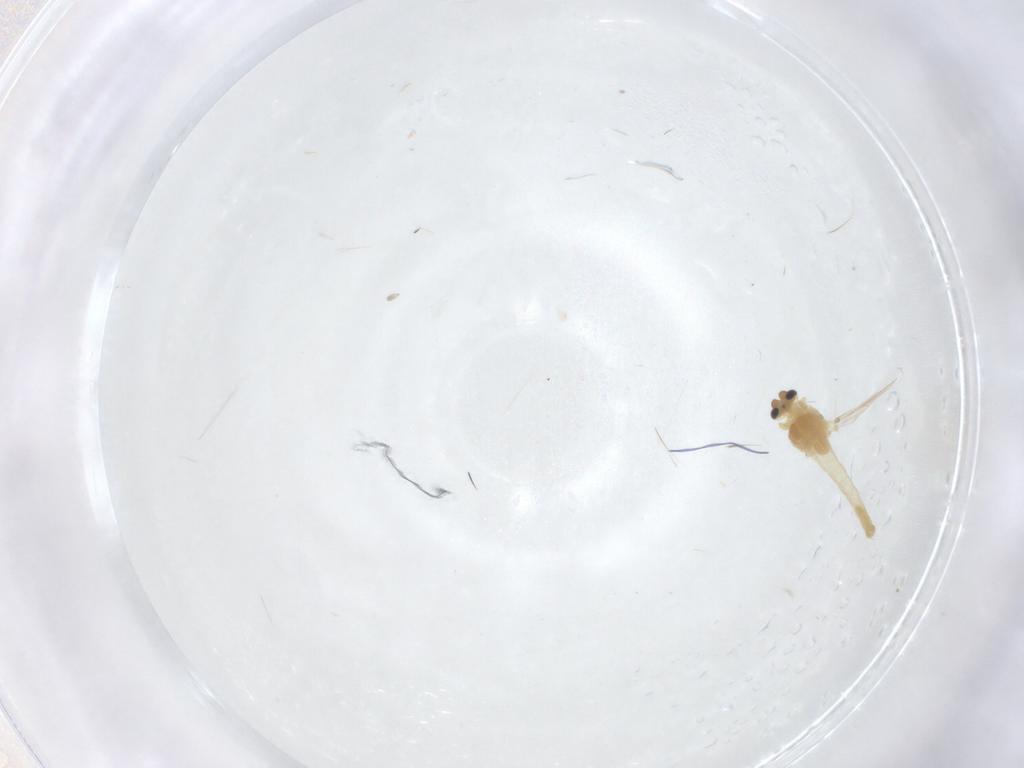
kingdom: Animalia
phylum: Arthropoda
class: Insecta
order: Diptera
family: Chironomidae
